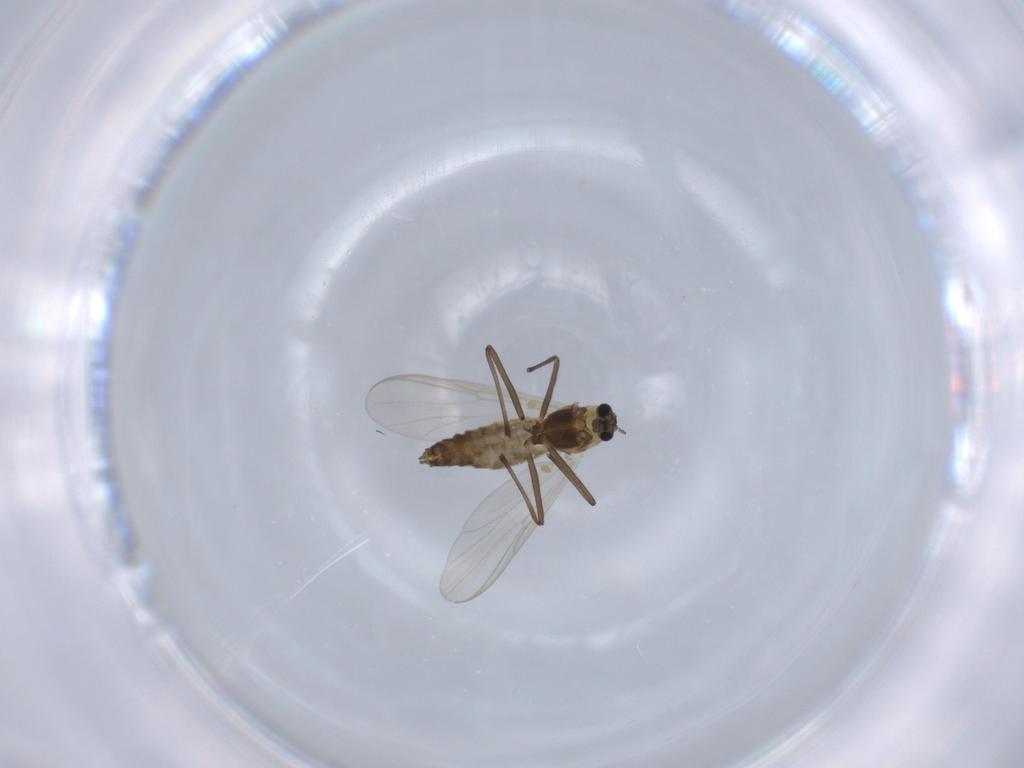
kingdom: Animalia
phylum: Arthropoda
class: Insecta
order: Diptera
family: Chironomidae
